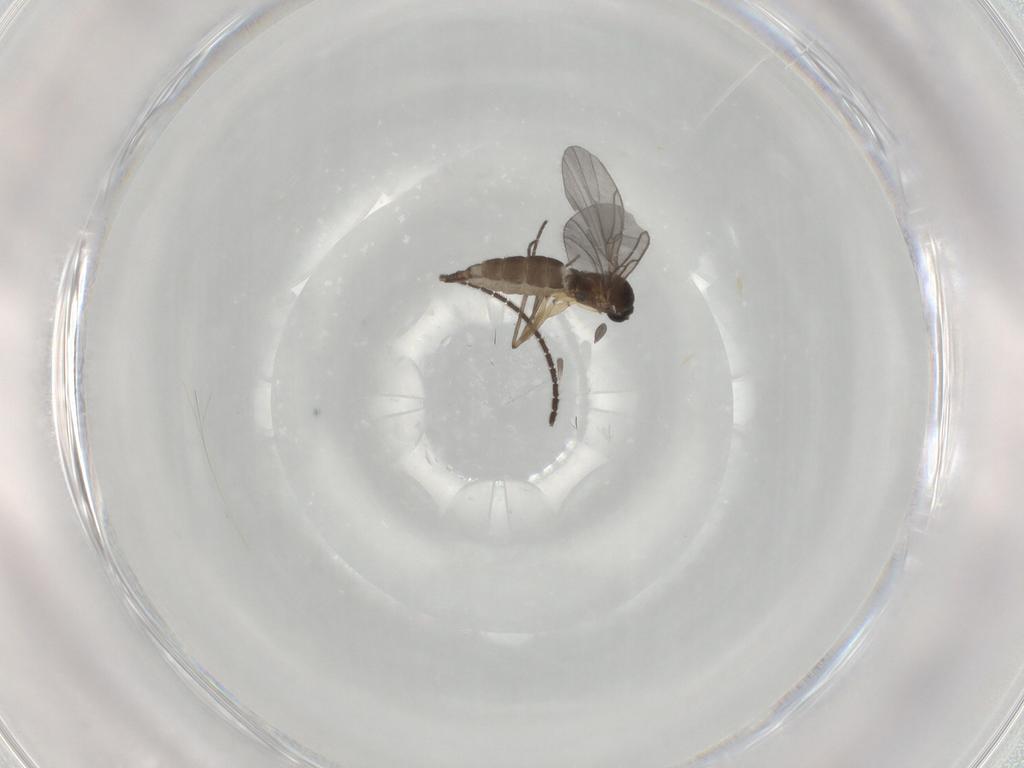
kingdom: Animalia
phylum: Arthropoda
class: Insecta
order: Diptera
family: Sciaridae
